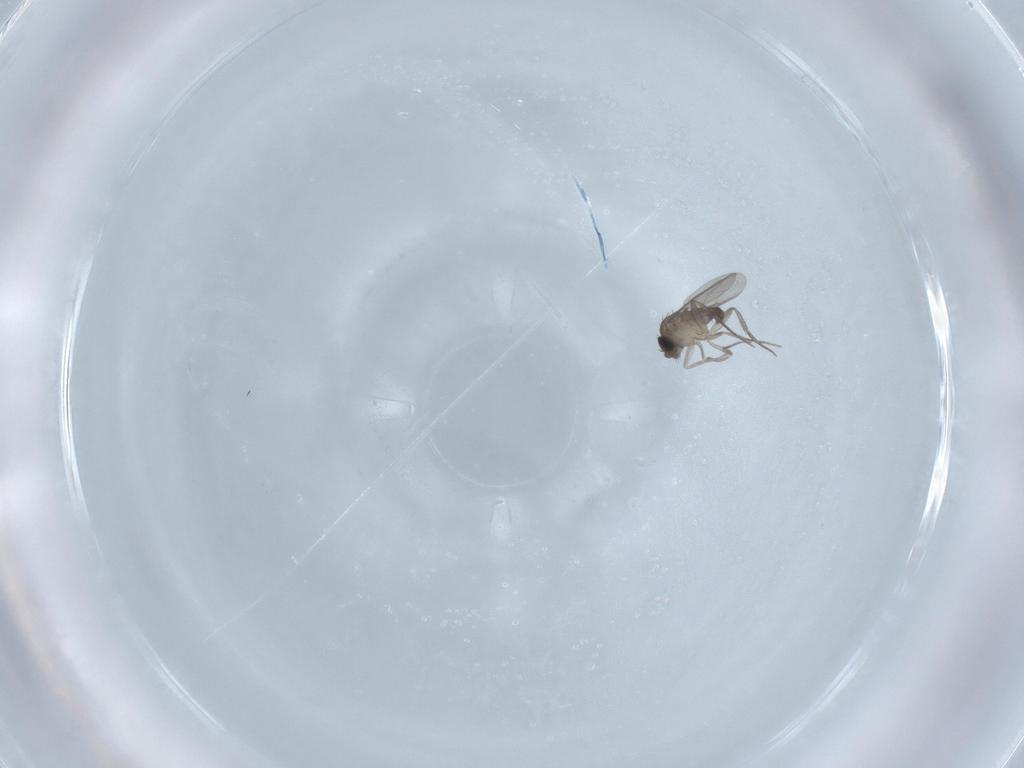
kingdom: Animalia
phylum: Arthropoda
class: Insecta
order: Diptera
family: Phoridae
